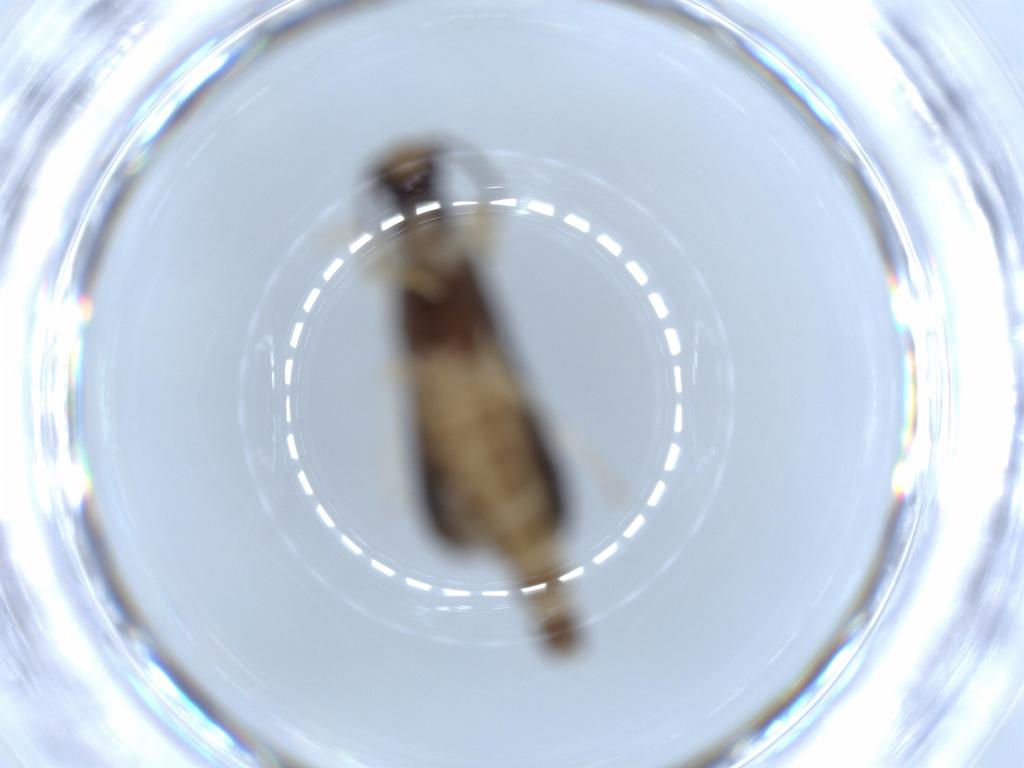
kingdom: Animalia
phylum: Arthropoda
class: Insecta
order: Coleoptera
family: Cantharidae
